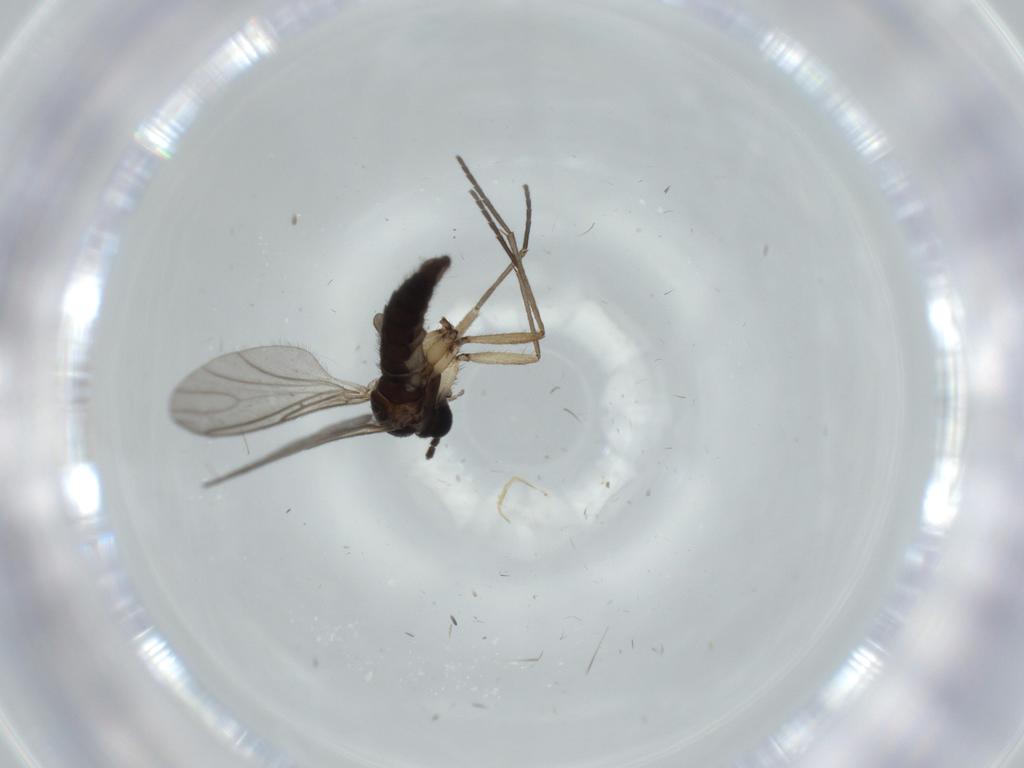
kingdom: Animalia
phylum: Arthropoda
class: Insecta
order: Diptera
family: Sciaridae
